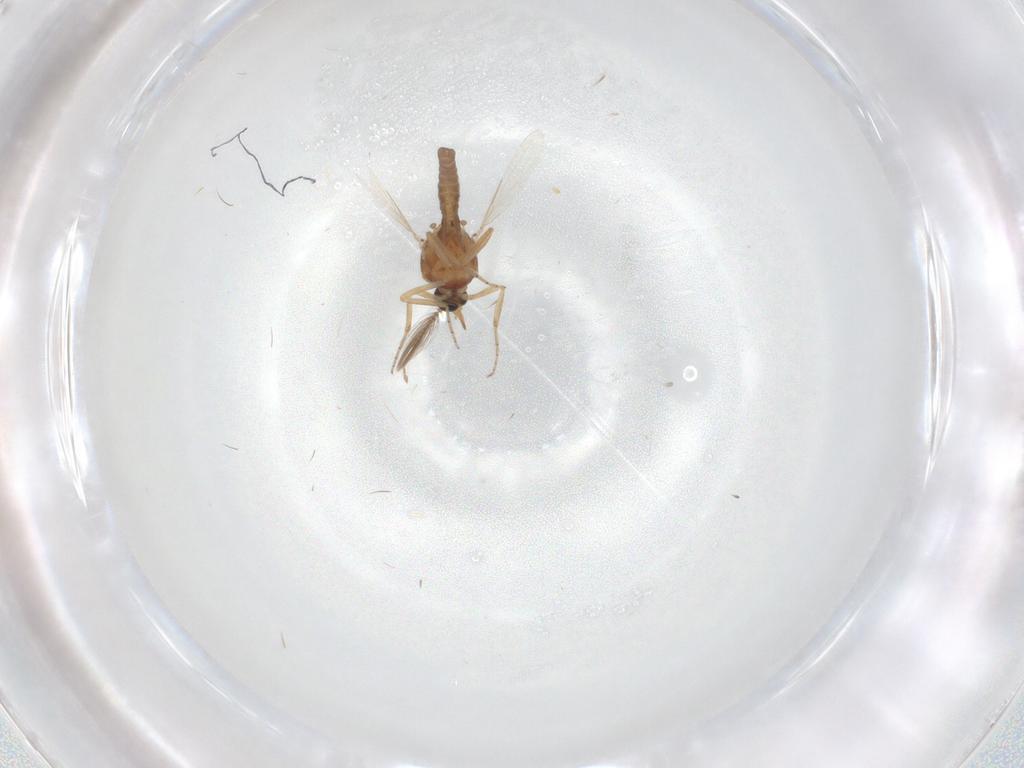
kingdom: Animalia
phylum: Arthropoda
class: Insecta
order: Diptera
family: Ceratopogonidae
